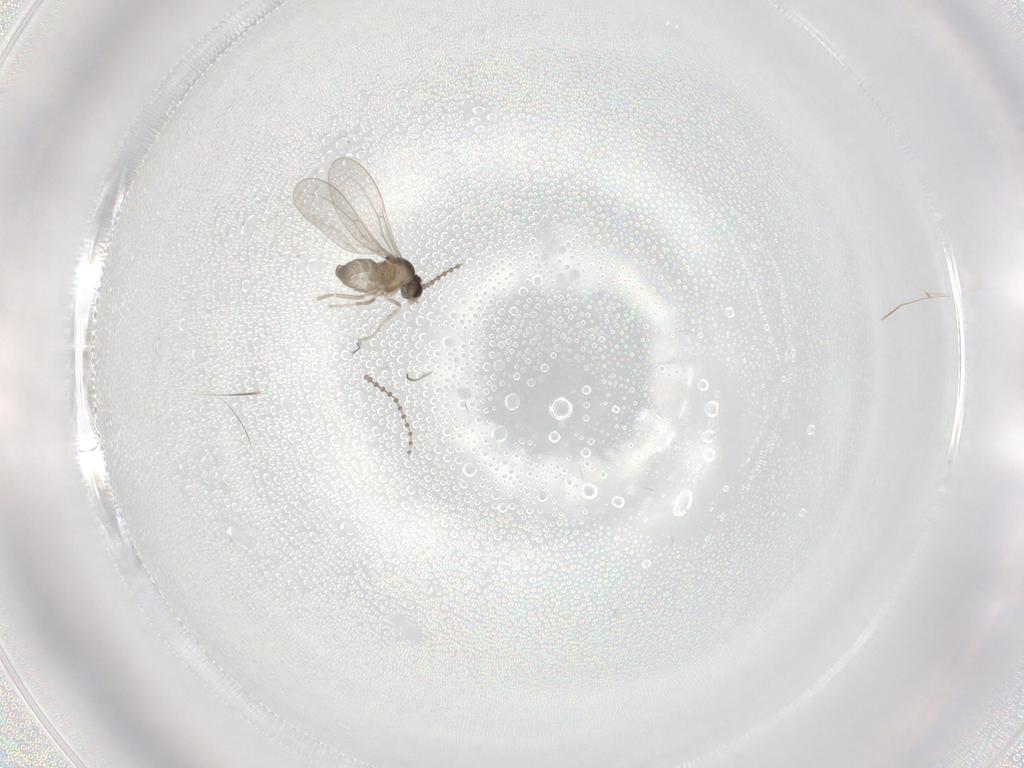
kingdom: Animalia
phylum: Arthropoda
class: Insecta
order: Diptera
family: Cecidomyiidae
